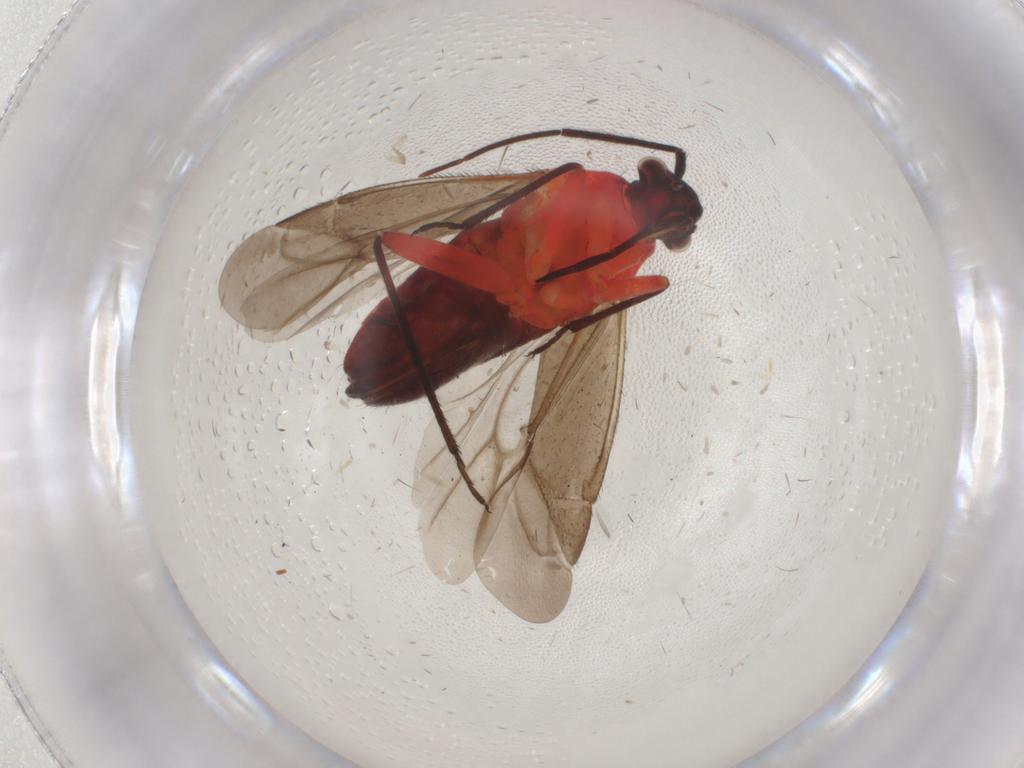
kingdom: Animalia
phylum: Arthropoda
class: Insecta
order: Hemiptera
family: Miridae
